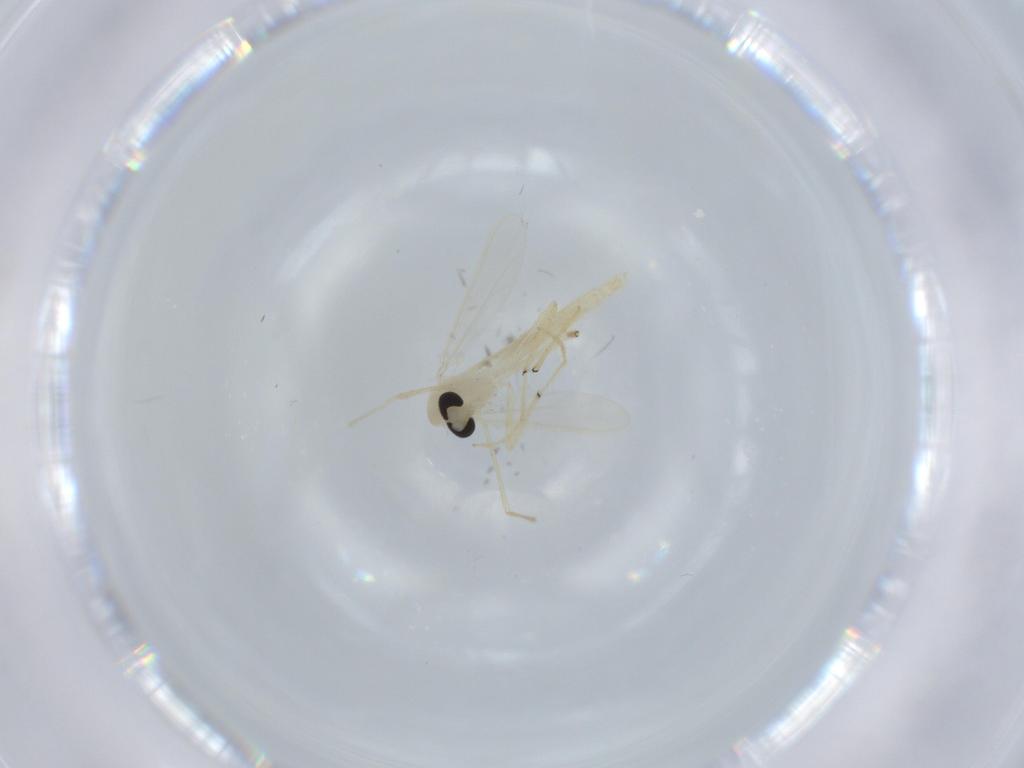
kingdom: Animalia
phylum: Arthropoda
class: Insecta
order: Diptera
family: Chironomidae
